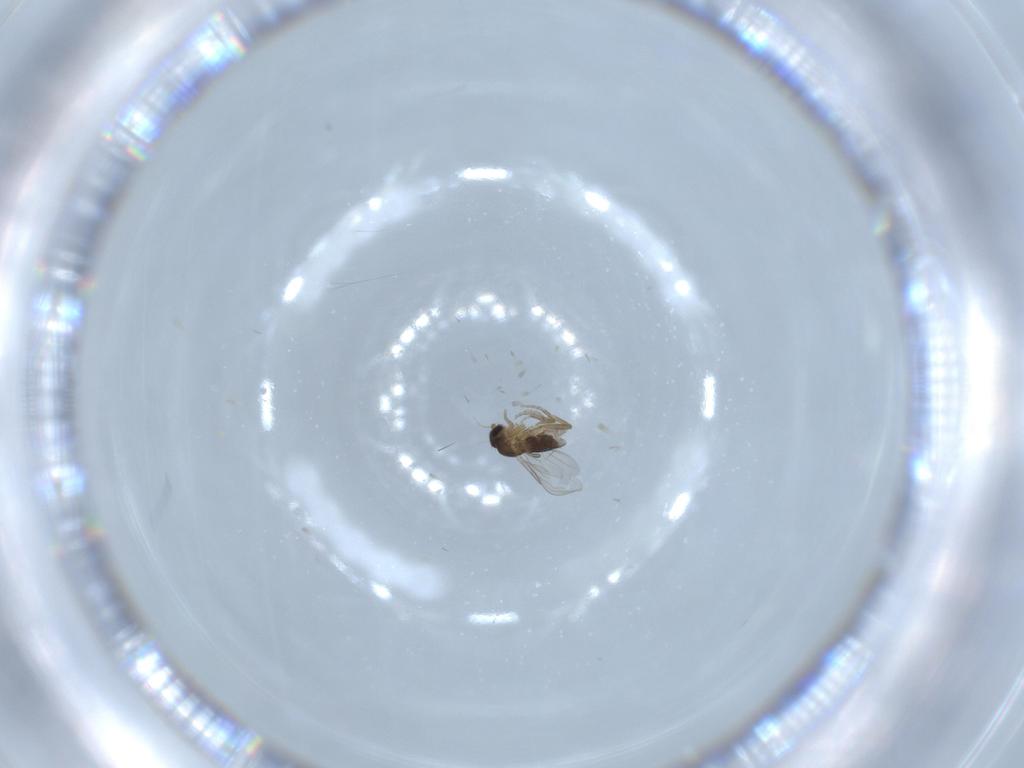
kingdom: Animalia
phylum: Arthropoda
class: Insecta
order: Diptera
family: Phoridae
